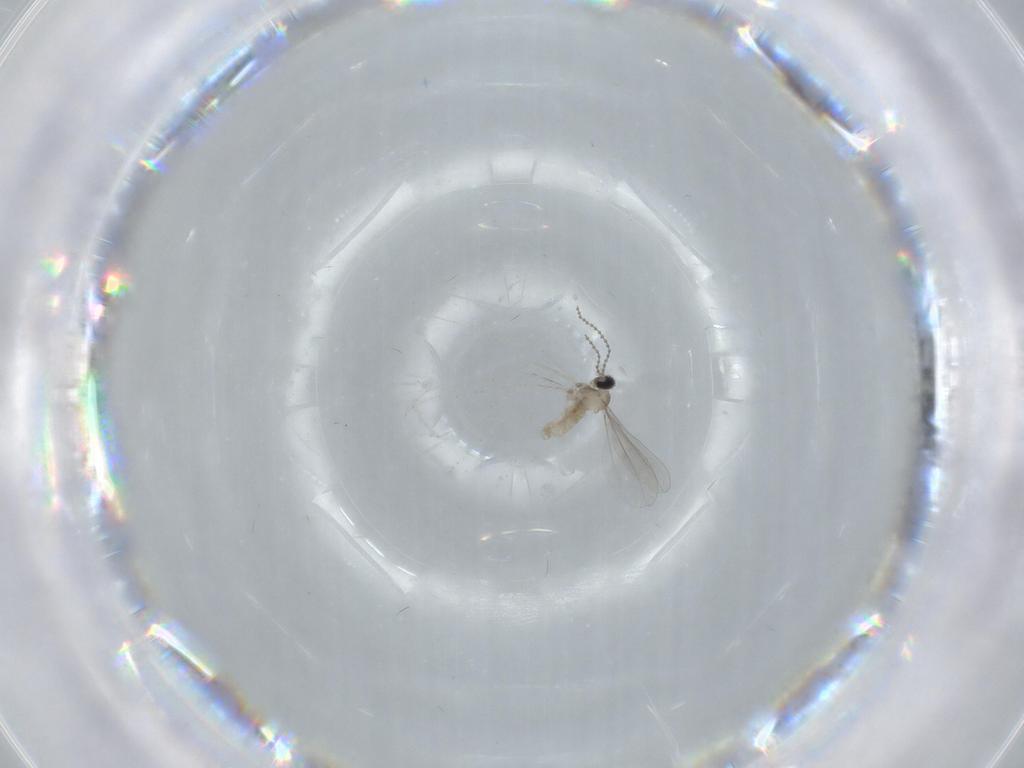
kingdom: Animalia
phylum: Arthropoda
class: Insecta
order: Diptera
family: Sciaridae
